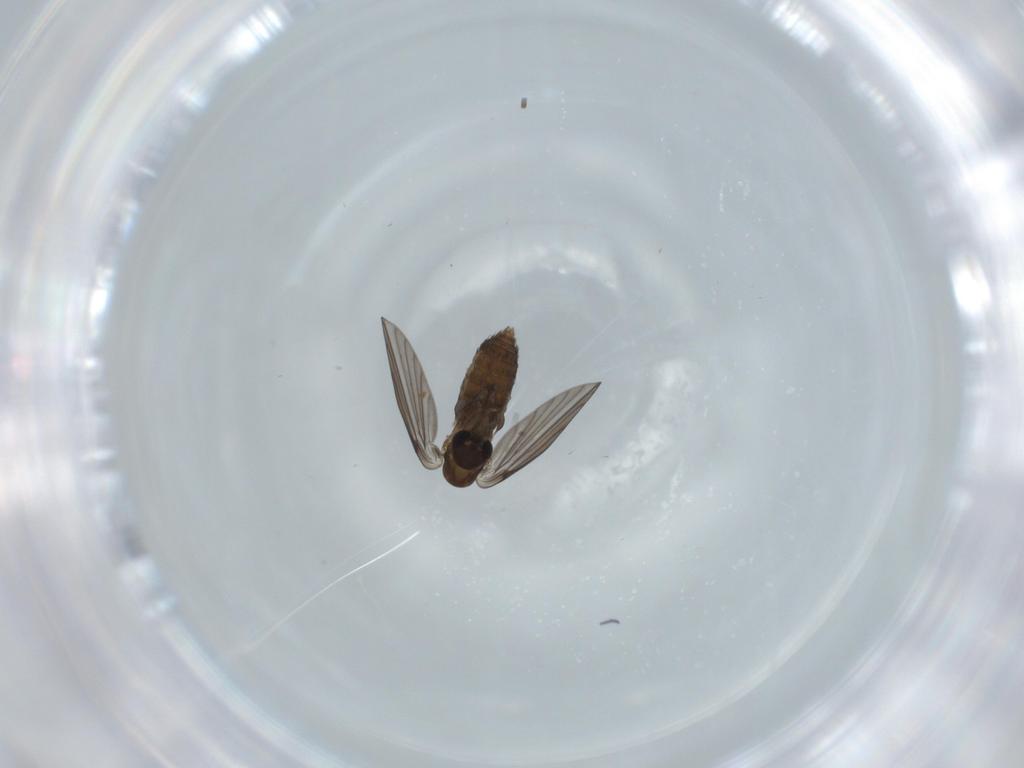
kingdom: Animalia
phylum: Arthropoda
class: Insecta
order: Diptera
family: Psychodidae
